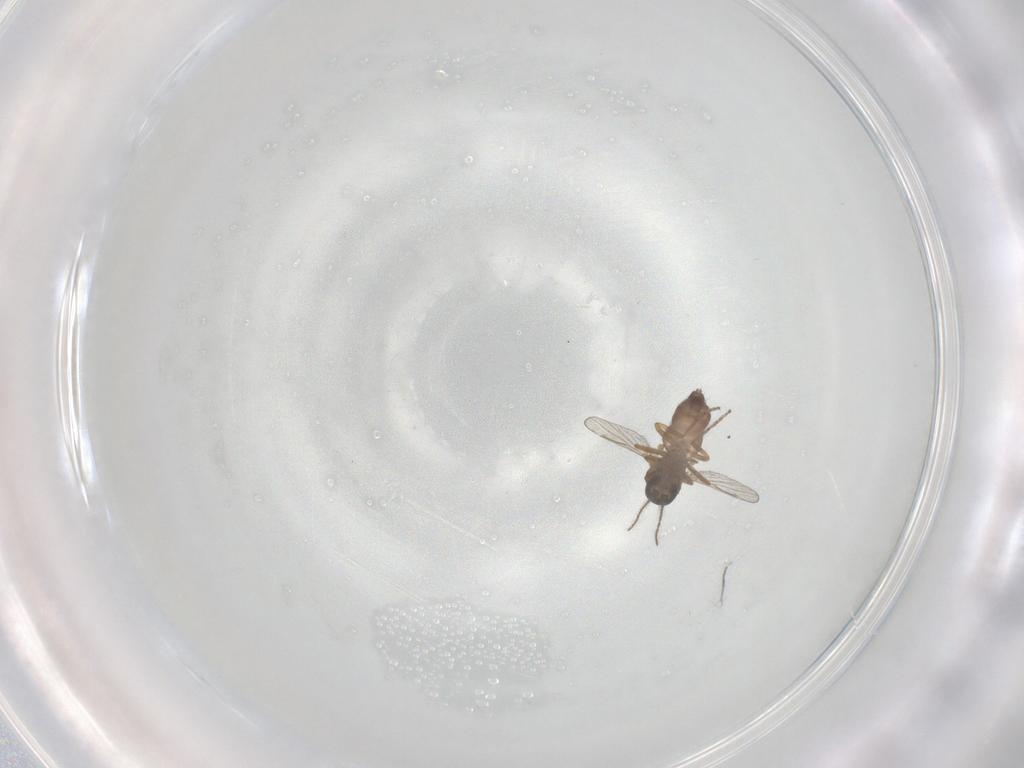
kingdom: Animalia
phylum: Arthropoda
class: Insecta
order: Diptera
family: Ceratopogonidae
